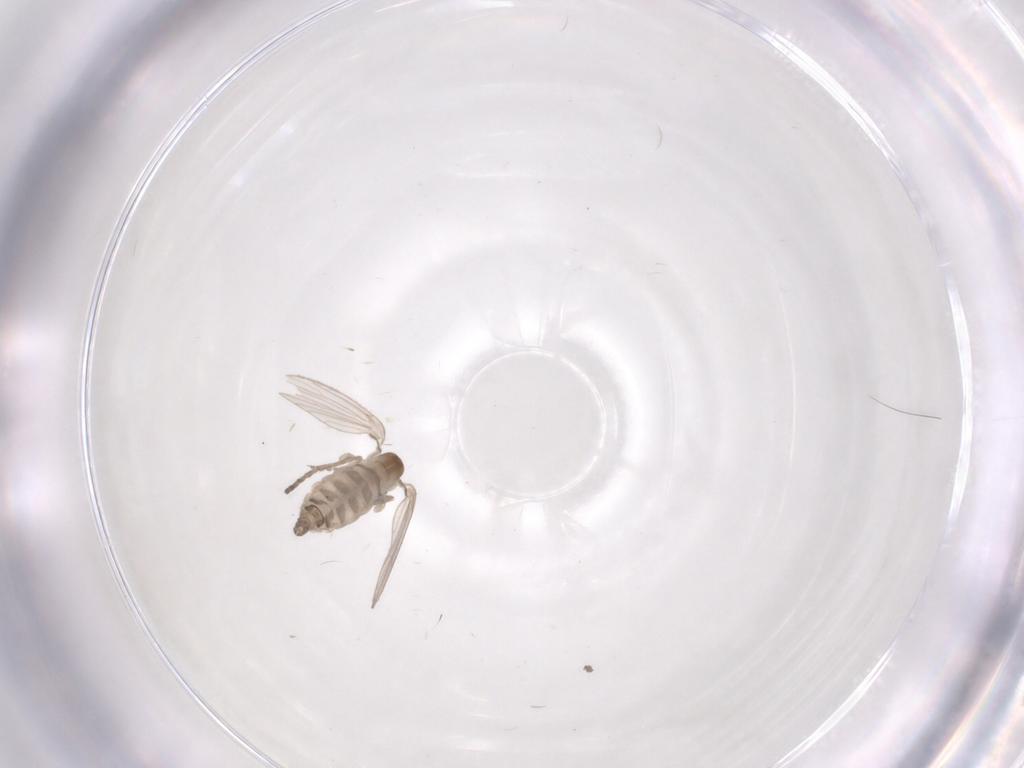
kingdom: Animalia
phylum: Arthropoda
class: Insecta
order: Diptera
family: Psychodidae
